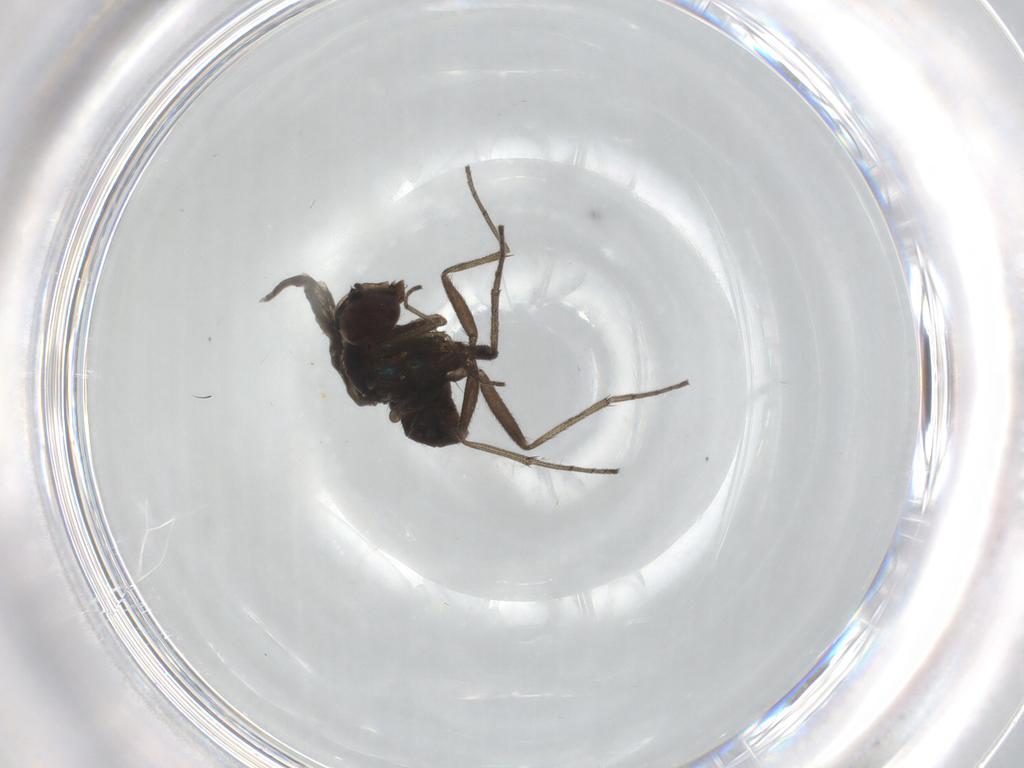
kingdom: Animalia
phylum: Arthropoda
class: Insecta
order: Diptera
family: Dolichopodidae
